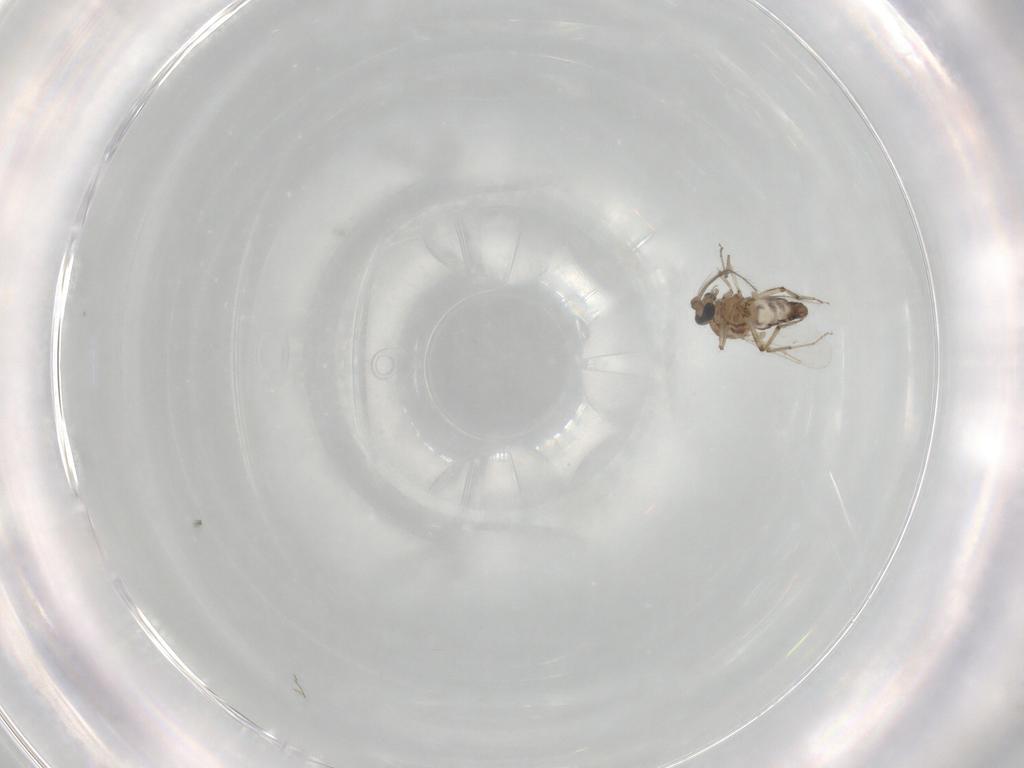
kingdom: Animalia
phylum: Arthropoda
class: Insecta
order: Diptera
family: Ceratopogonidae
